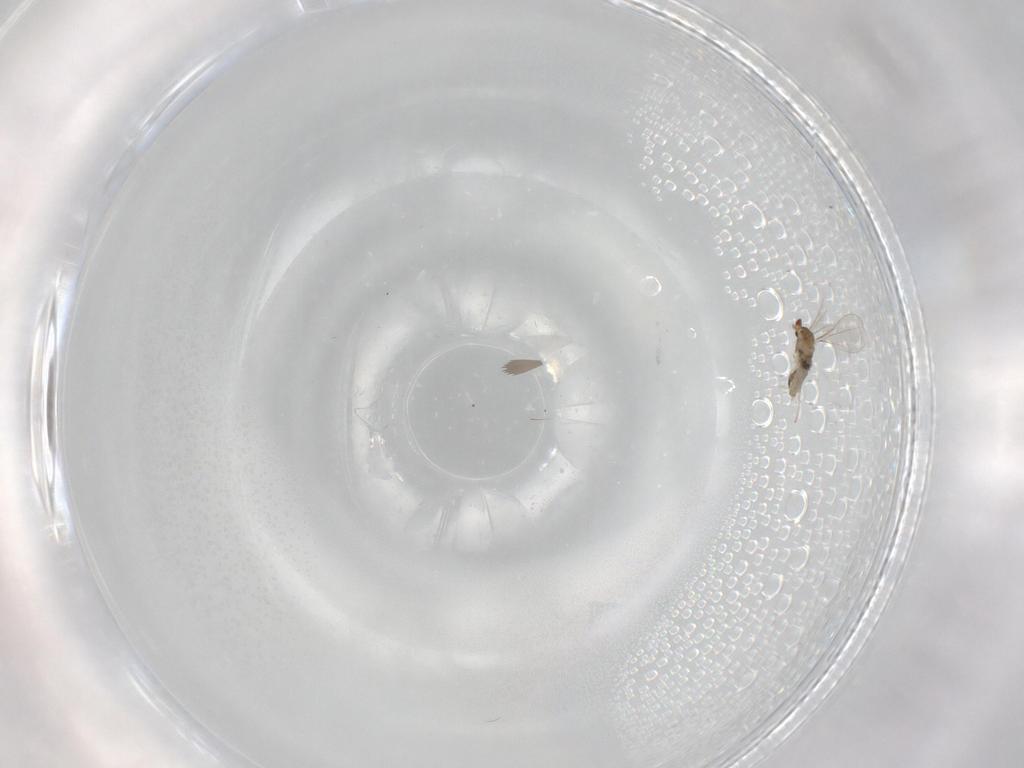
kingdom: Animalia
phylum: Arthropoda
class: Insecta
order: Diptera
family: Cecidomyiidae
